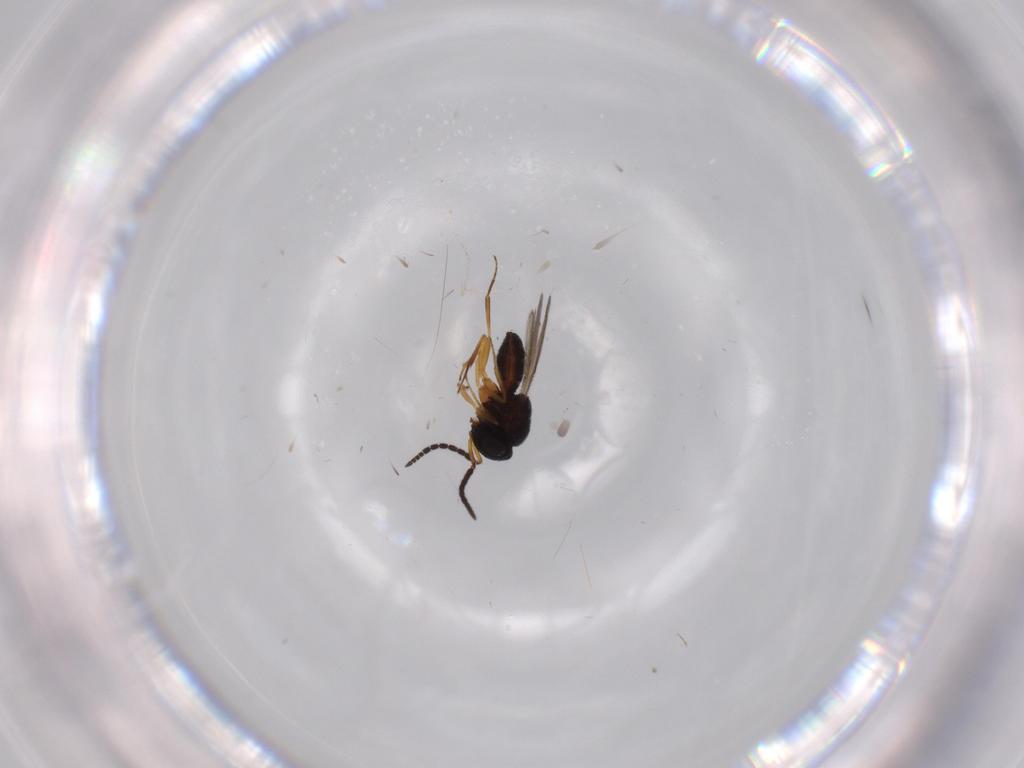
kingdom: Animalia
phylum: Arthropoda
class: Insecta
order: Coleoptera
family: Curculionidae
